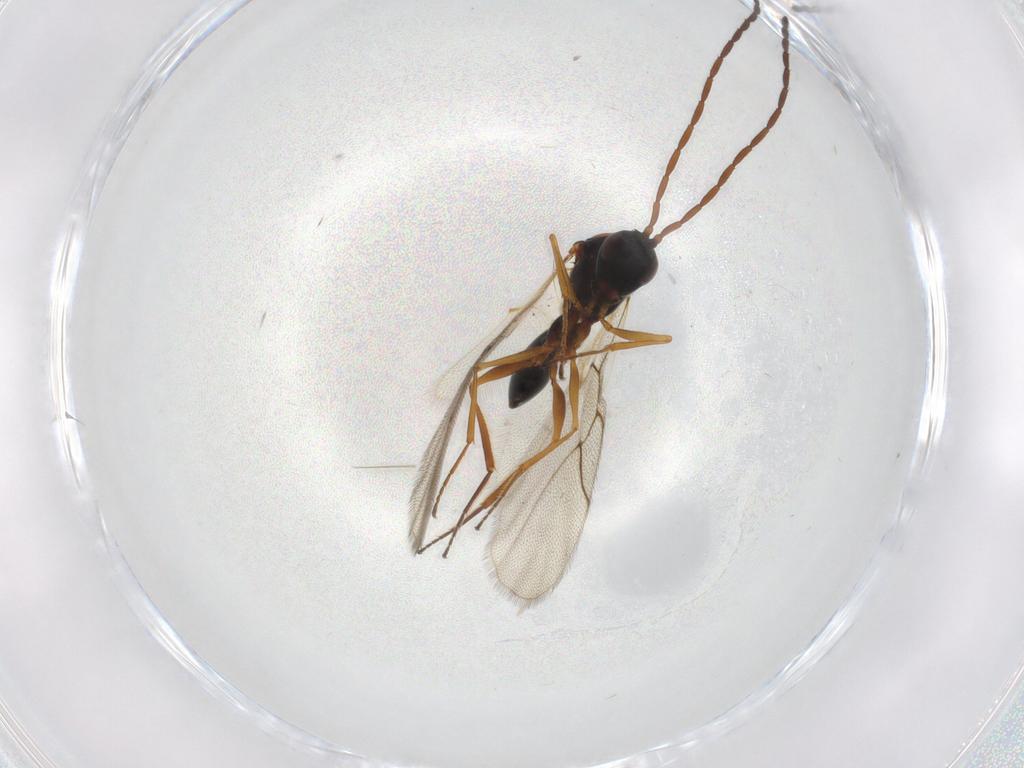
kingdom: Animalia
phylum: Arthropoda
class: Insecta
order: Hymenoptera
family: Figitidae
